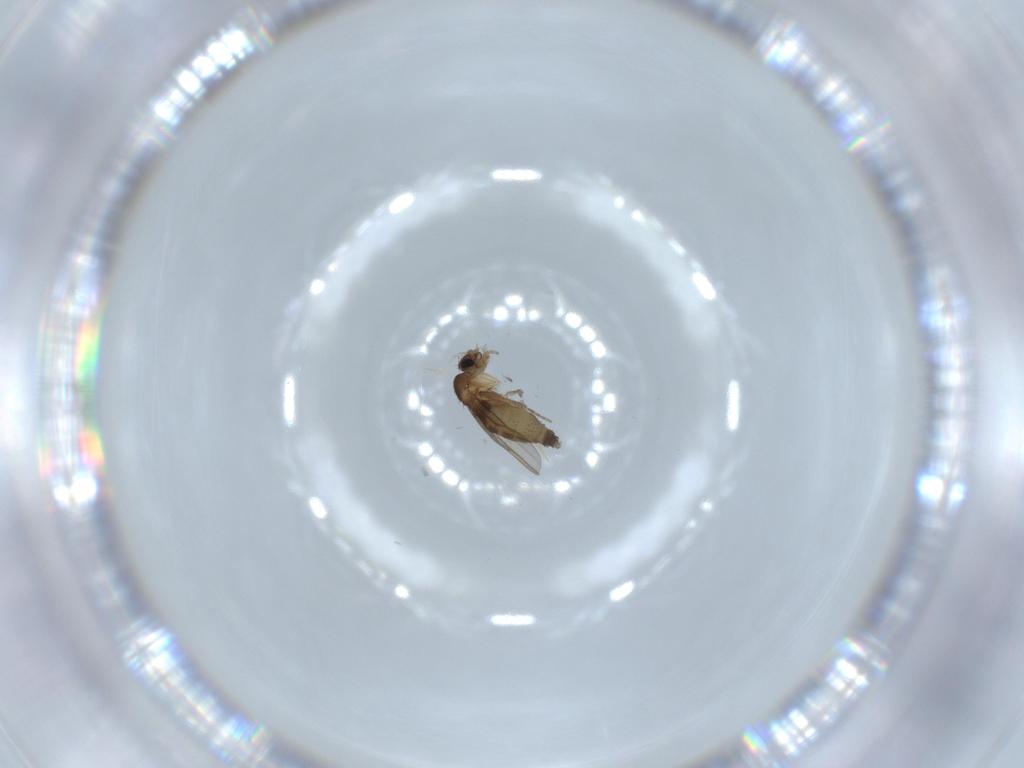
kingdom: Animalia
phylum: Arthropoda
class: Insecta
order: Diptera
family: Phoridae
